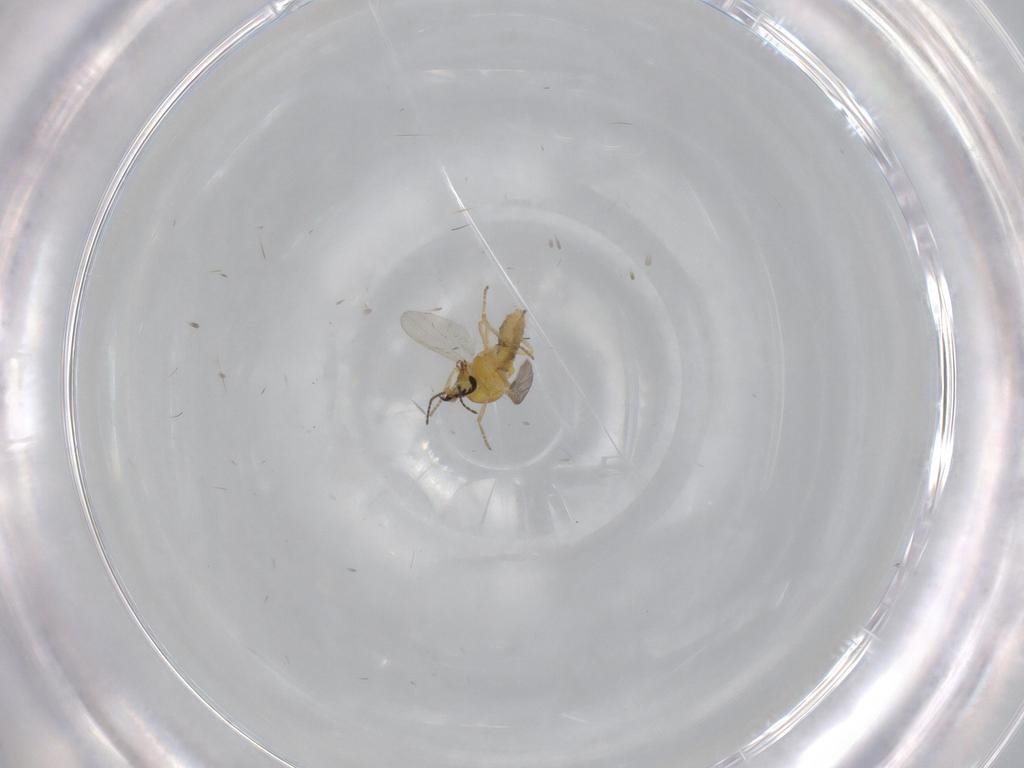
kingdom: Animalia
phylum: Arthropoda
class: Insecta
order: Diptera
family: Ceratopogonidae
